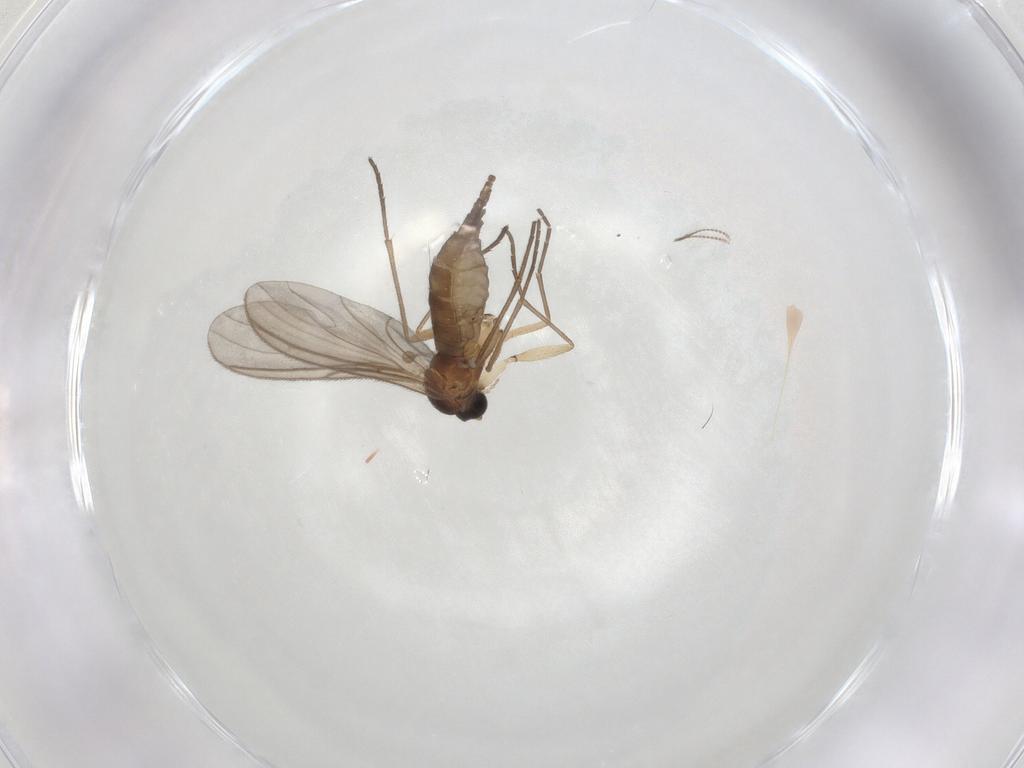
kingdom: Animalia
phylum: Arthropoda
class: Insecta
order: Diptera
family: Sciaridae
